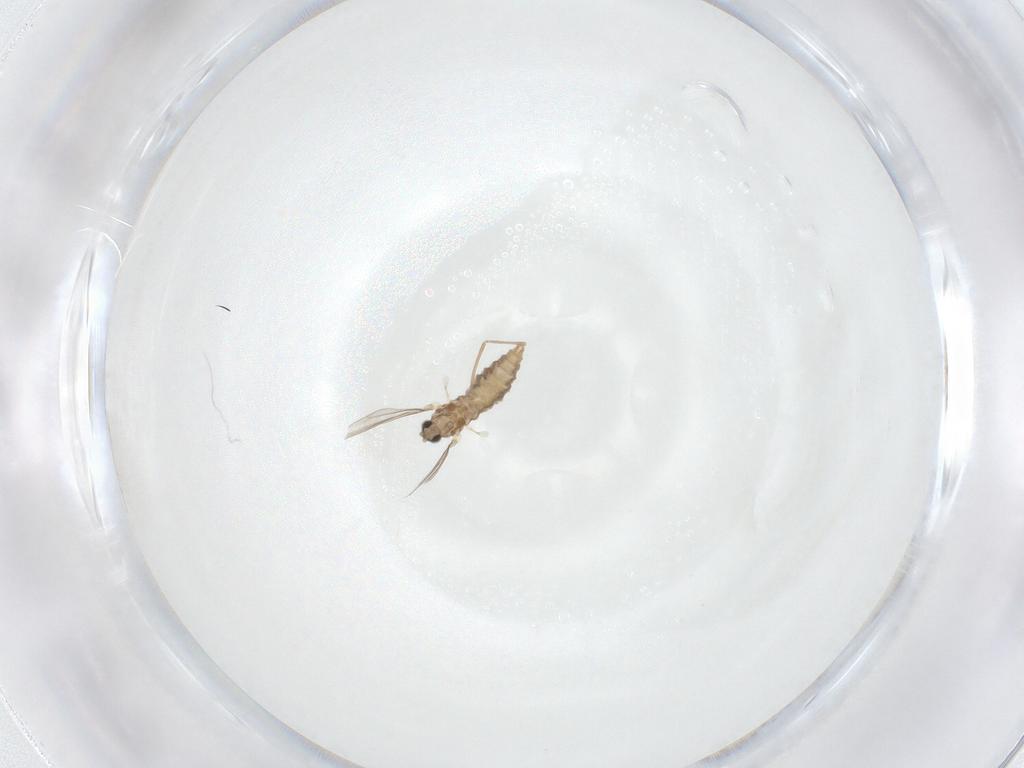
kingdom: Animalia
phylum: Arthropoda
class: Insecta
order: Diptera
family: Cecidomyiidae
